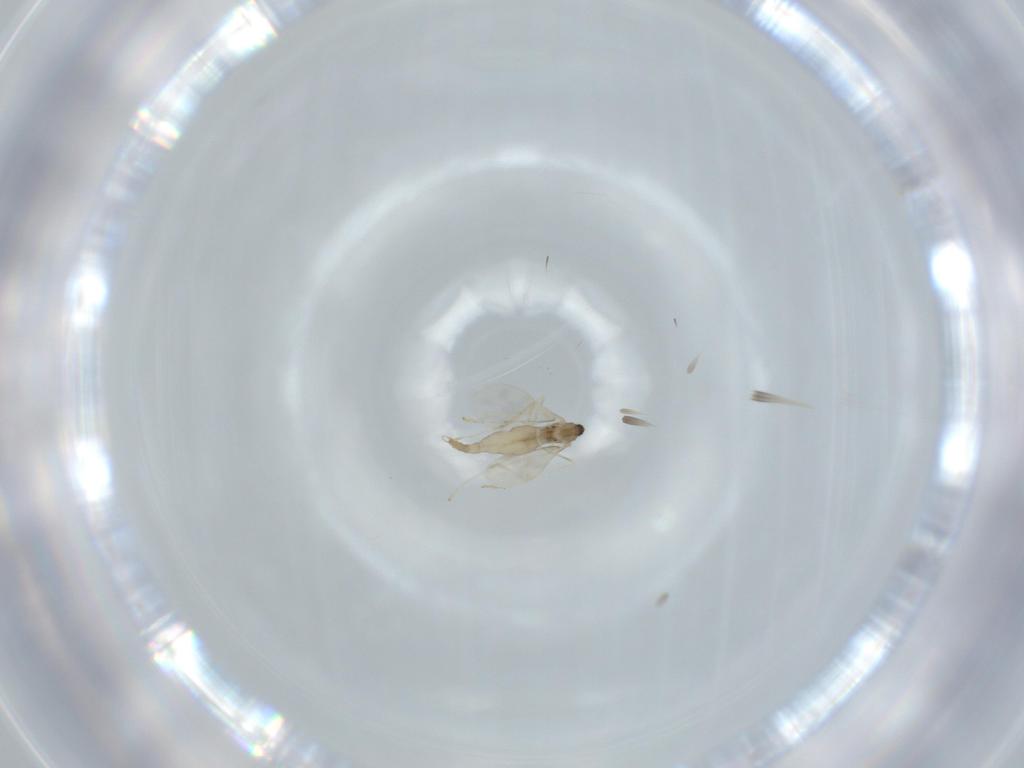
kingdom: Animalia
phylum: Arthropoda
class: Insecta
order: Diptera
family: Cecidomyiidae
